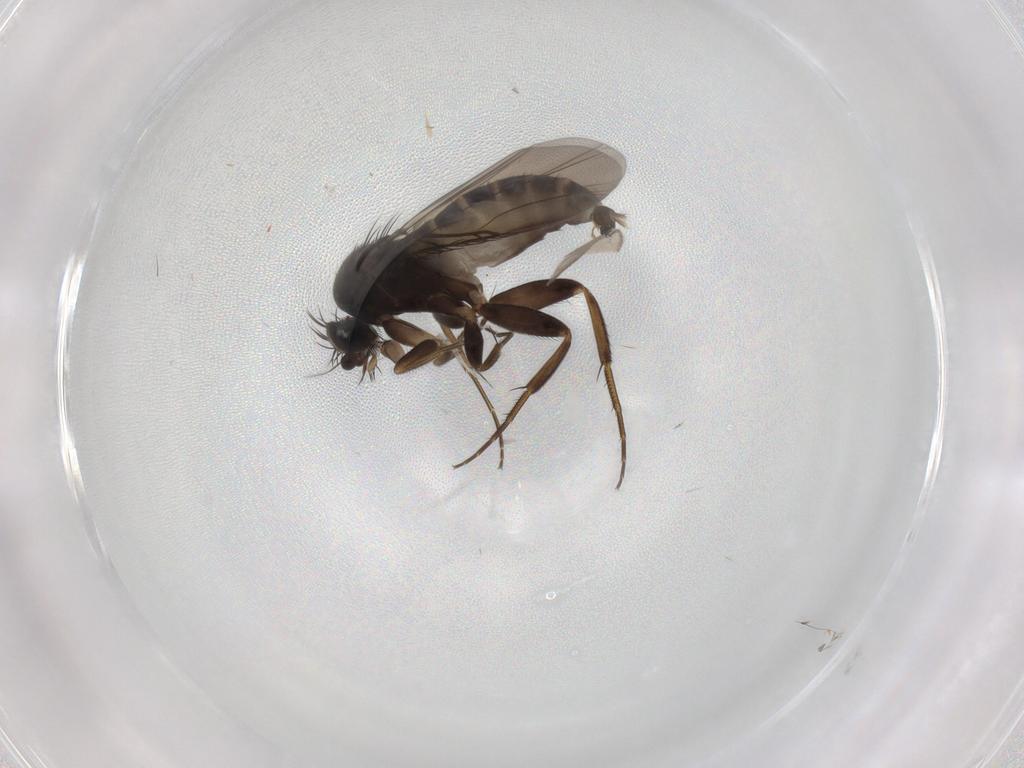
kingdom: Animalia
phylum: Arthropoda
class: Insecta
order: Diptera
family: Phoridae
